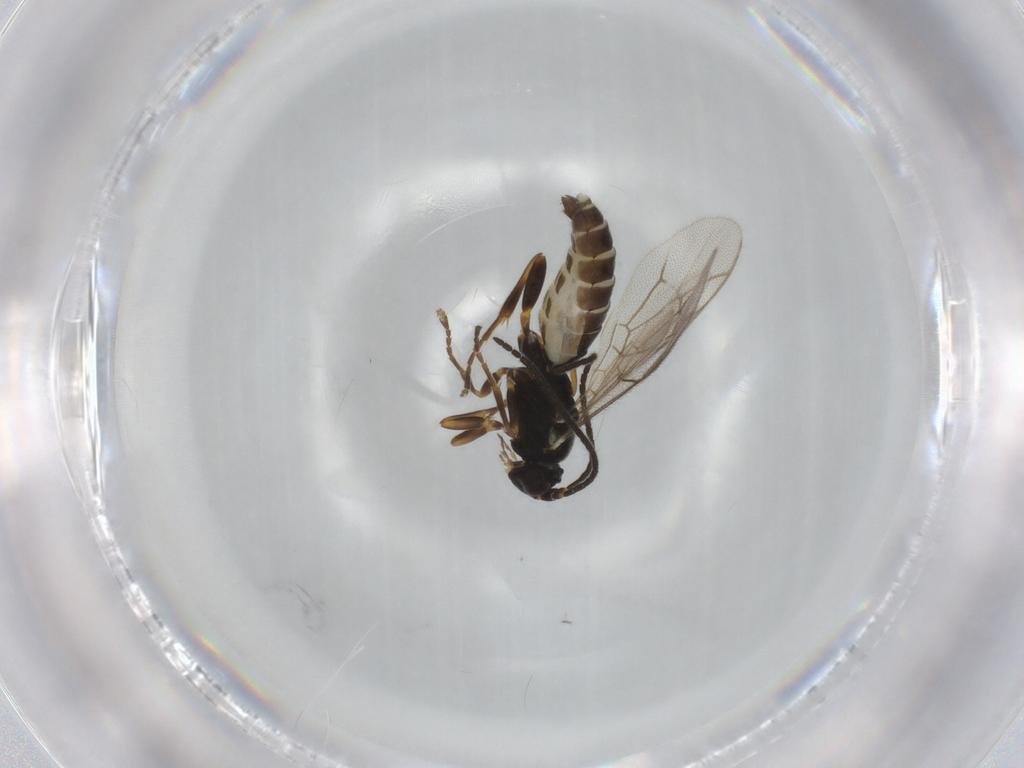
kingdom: Animalia
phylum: Arthropoda
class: Insecta
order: Hymenoptera
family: Ichneumonidae
